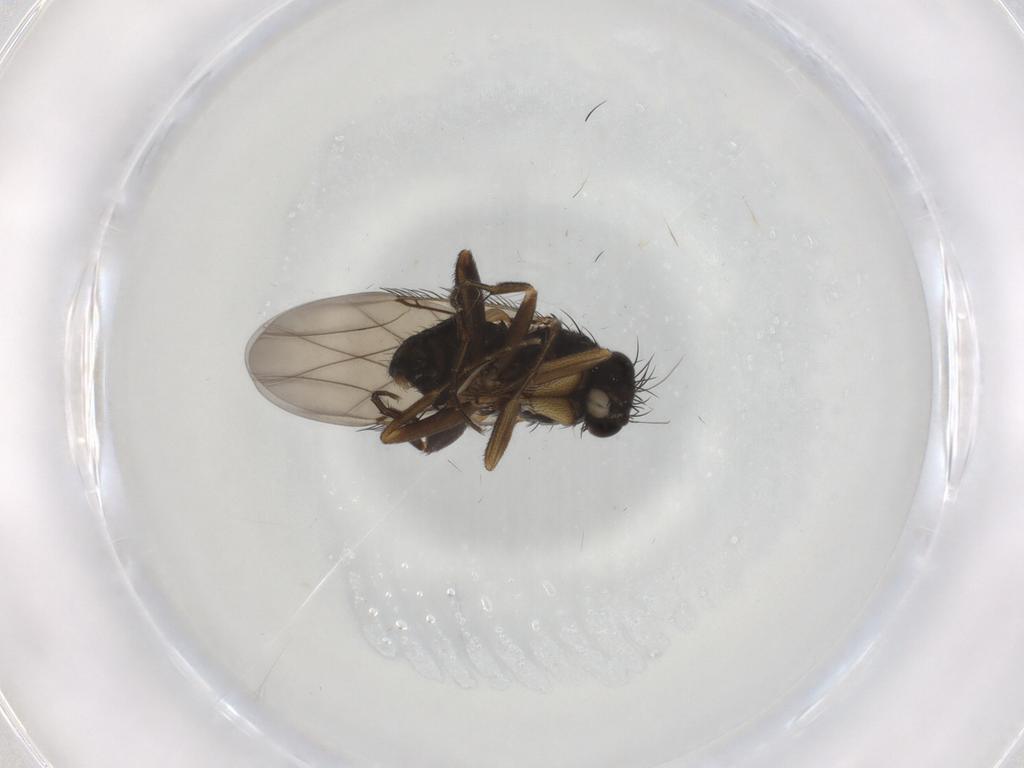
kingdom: Animalia
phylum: Arthropoda
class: Insecta
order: Diptera
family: Phoridae
